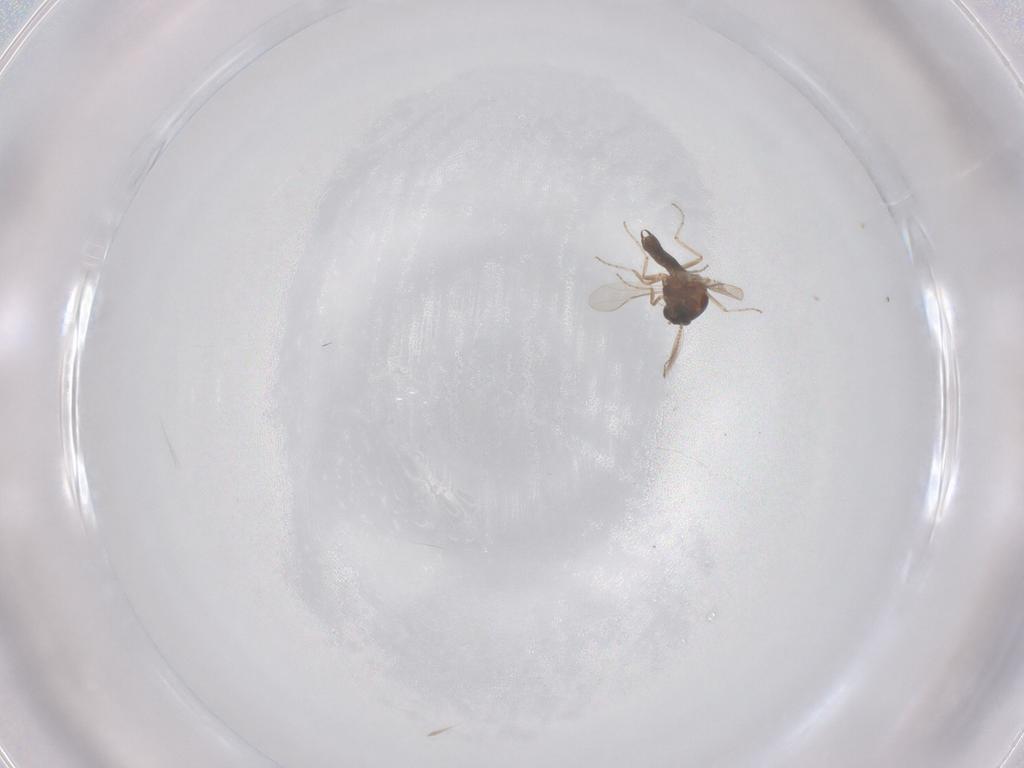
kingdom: Animalia
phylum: Arthropoda
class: Insecta
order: Diptera
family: Ceratopogonidae
